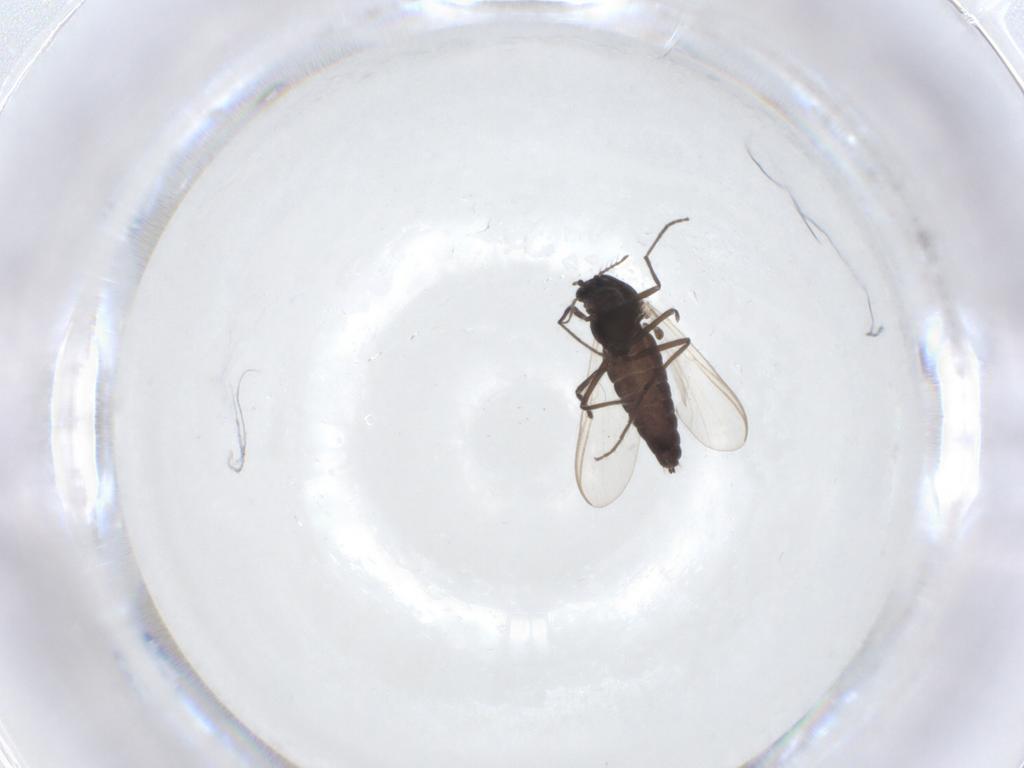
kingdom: Animalia
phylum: Arthropoda
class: Insecta
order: Diptera
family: Chironomidae
